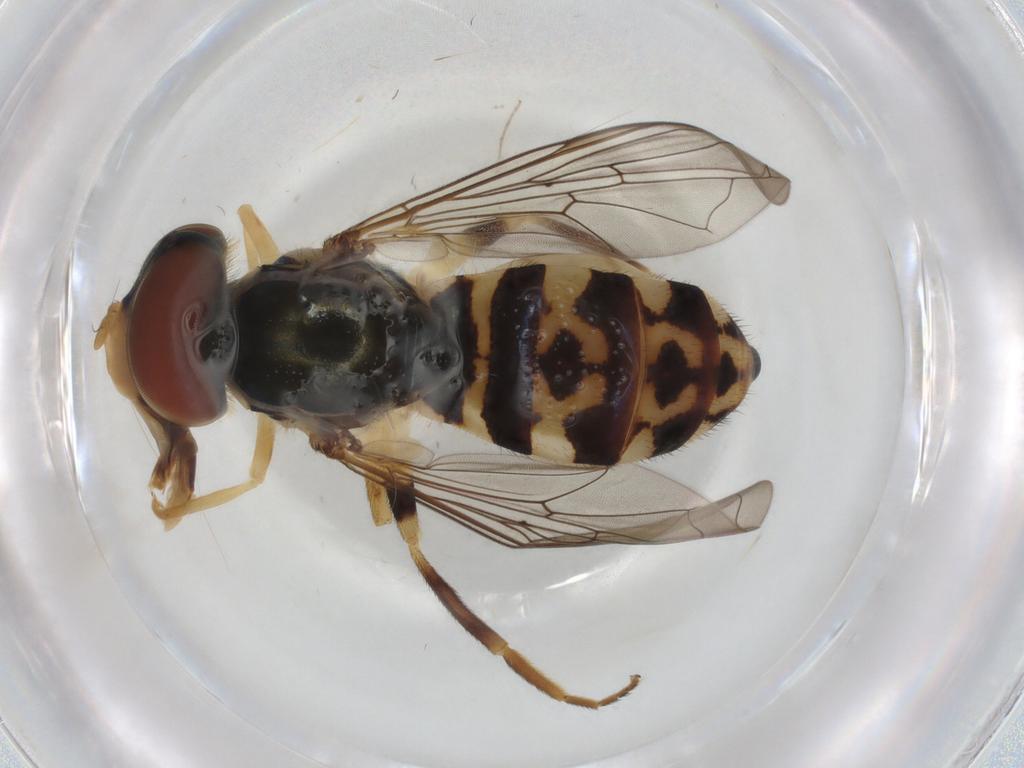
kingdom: Animalia
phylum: Arthropoda
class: Insecta
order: Diptera
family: Syrphidae
